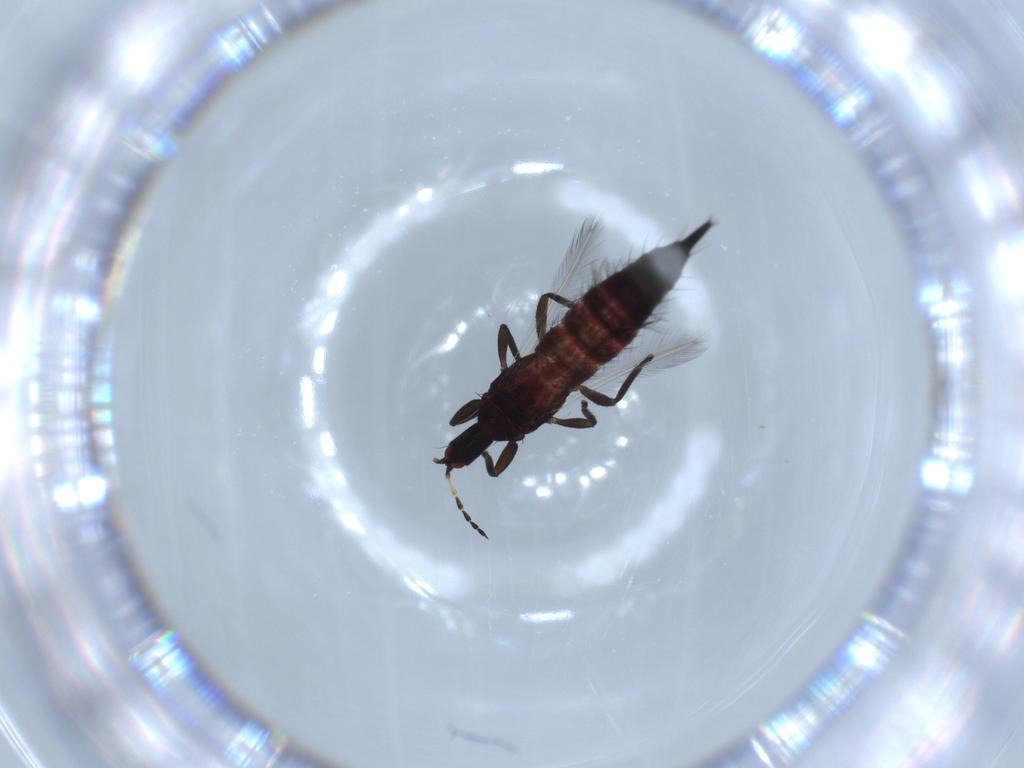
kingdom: Animalia
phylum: Arthropoda
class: Insecta
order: Thysanoptera
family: Phlaeothripidae
